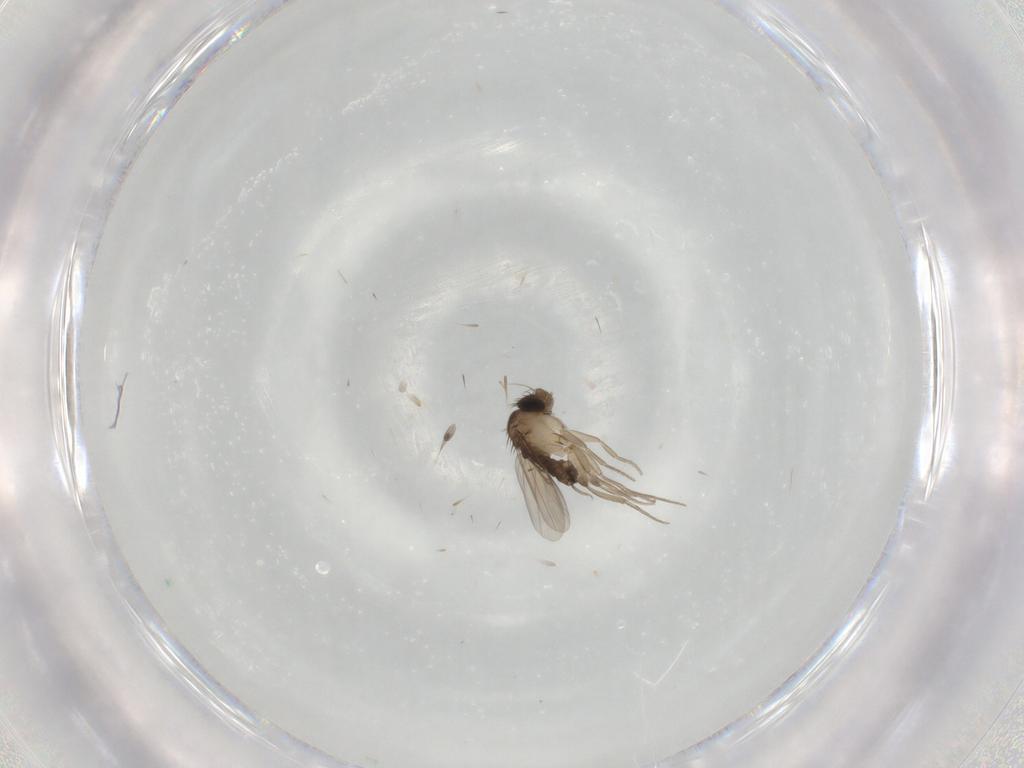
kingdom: Animalia
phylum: Arthropoda
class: Insecta
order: Diptera
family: Phoridae
